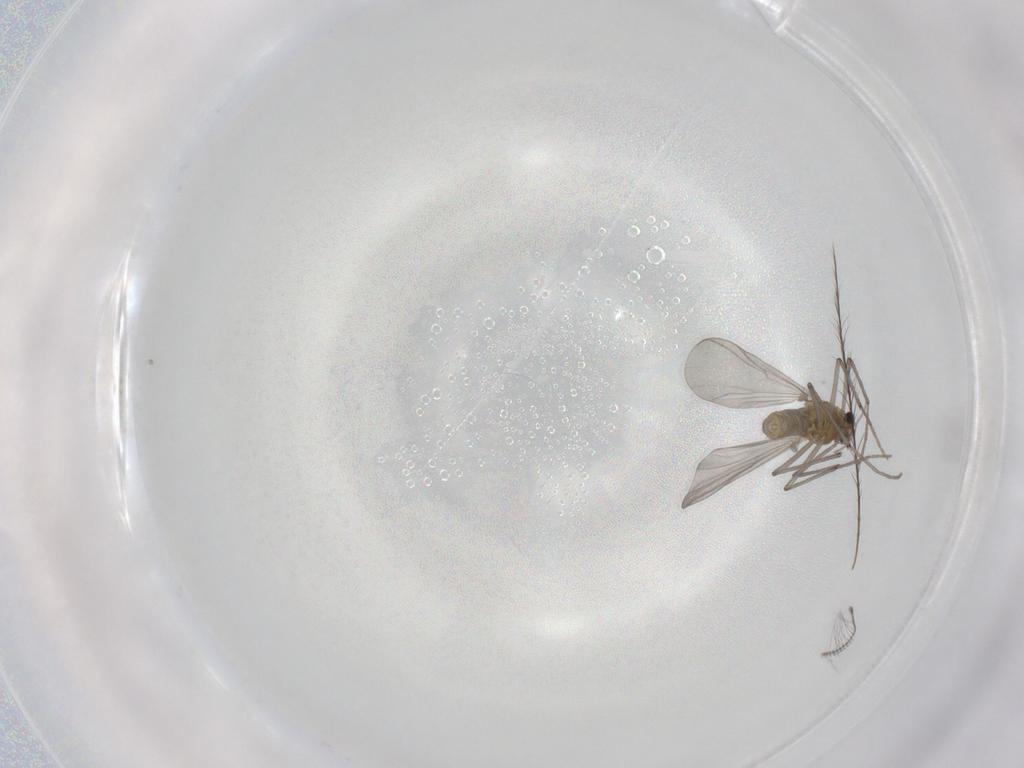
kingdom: Animalia
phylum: Arthropoda
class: Insecta
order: Diptera
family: Chironomidae
